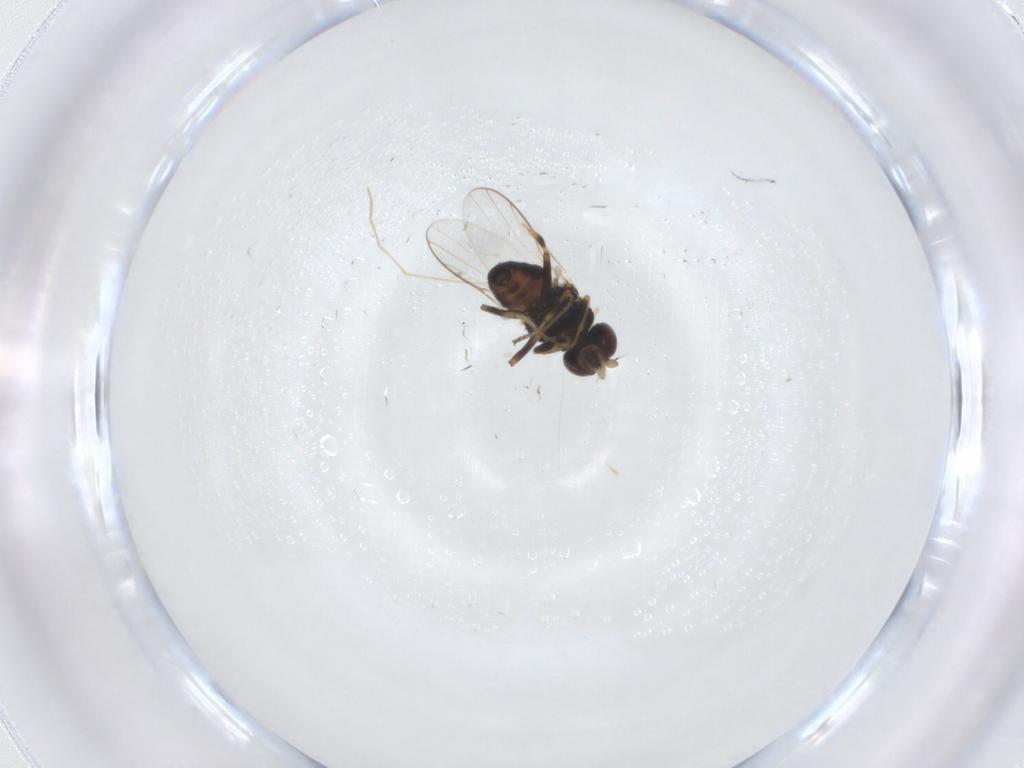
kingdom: Animalia
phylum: Arthropoda
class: Insecta
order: Diptera
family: Chloropidae
